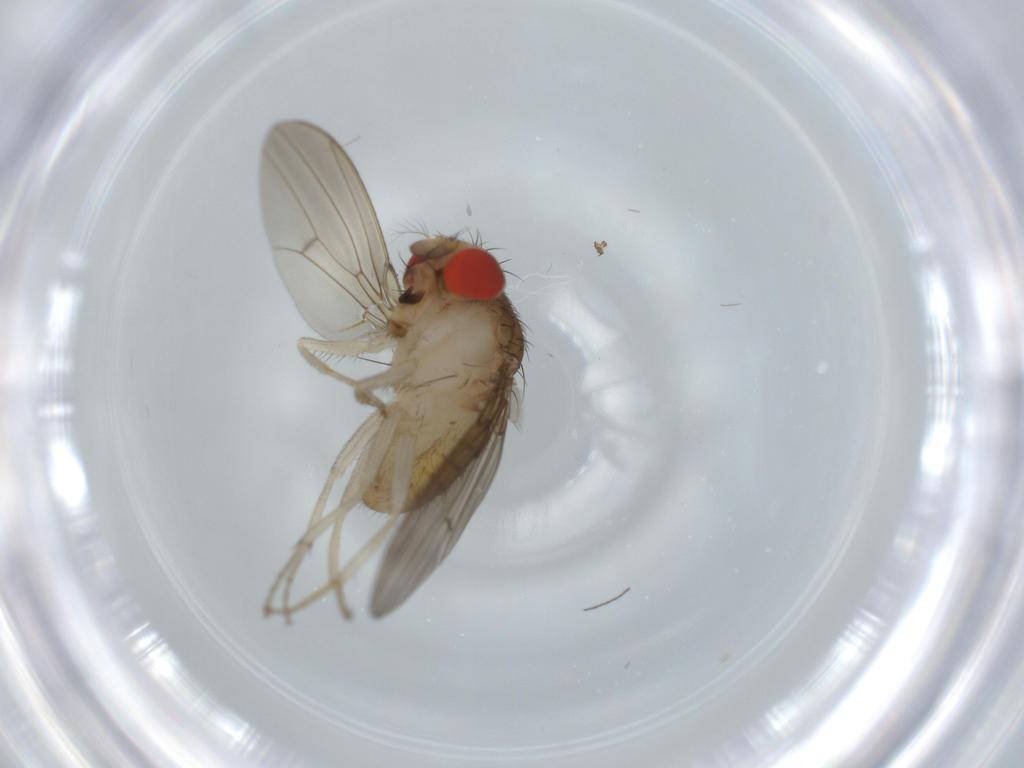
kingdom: Animalia
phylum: Arthropoda
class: Insecta
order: Diptera
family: Drosophilidae
